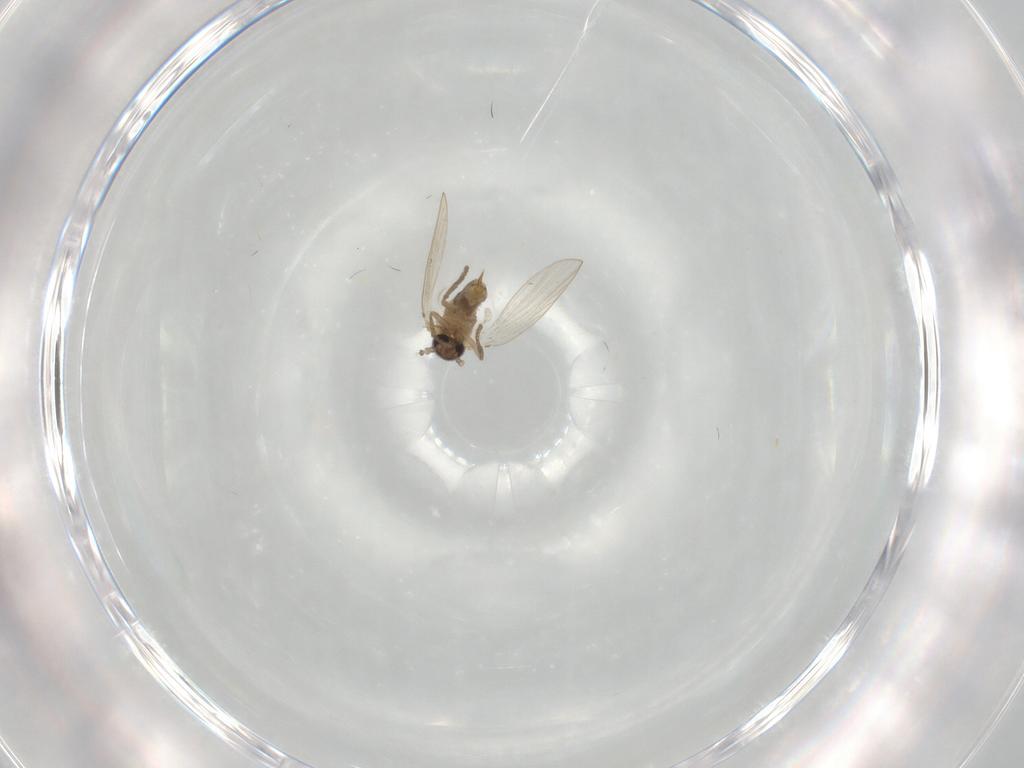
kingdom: Animalia
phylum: Arthropoda
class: Insecta
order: Diptera
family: Psychodidae
